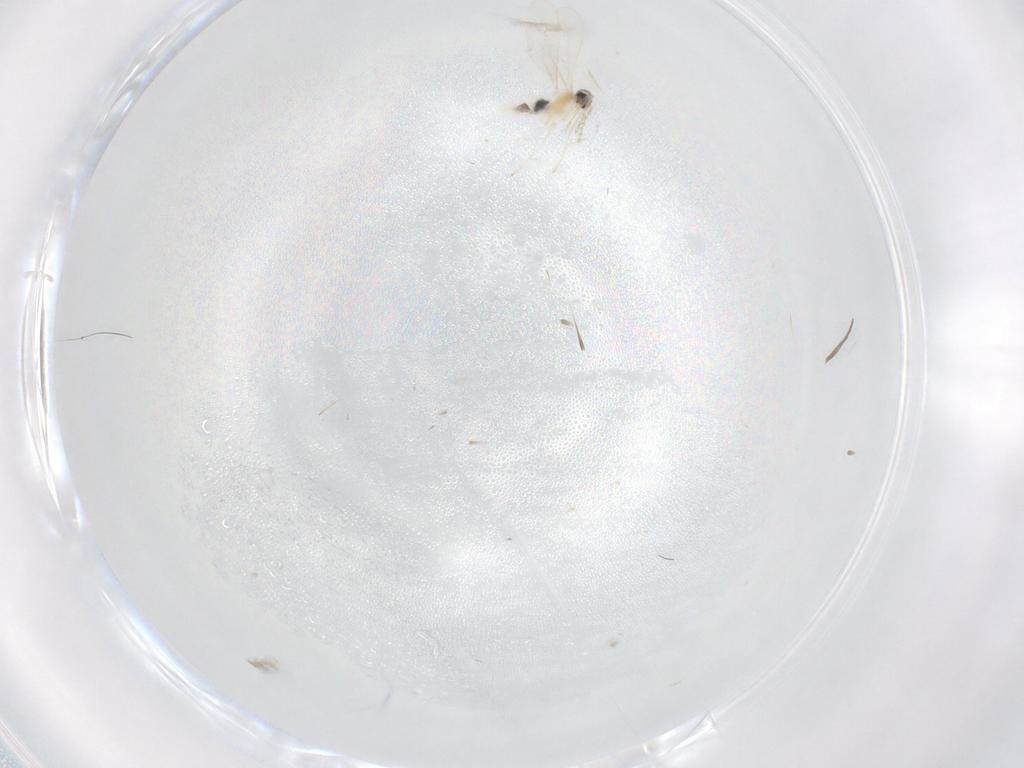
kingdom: Animalia
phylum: Arthropoda
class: Insecta
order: Diptera
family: Cecidomyiidae
